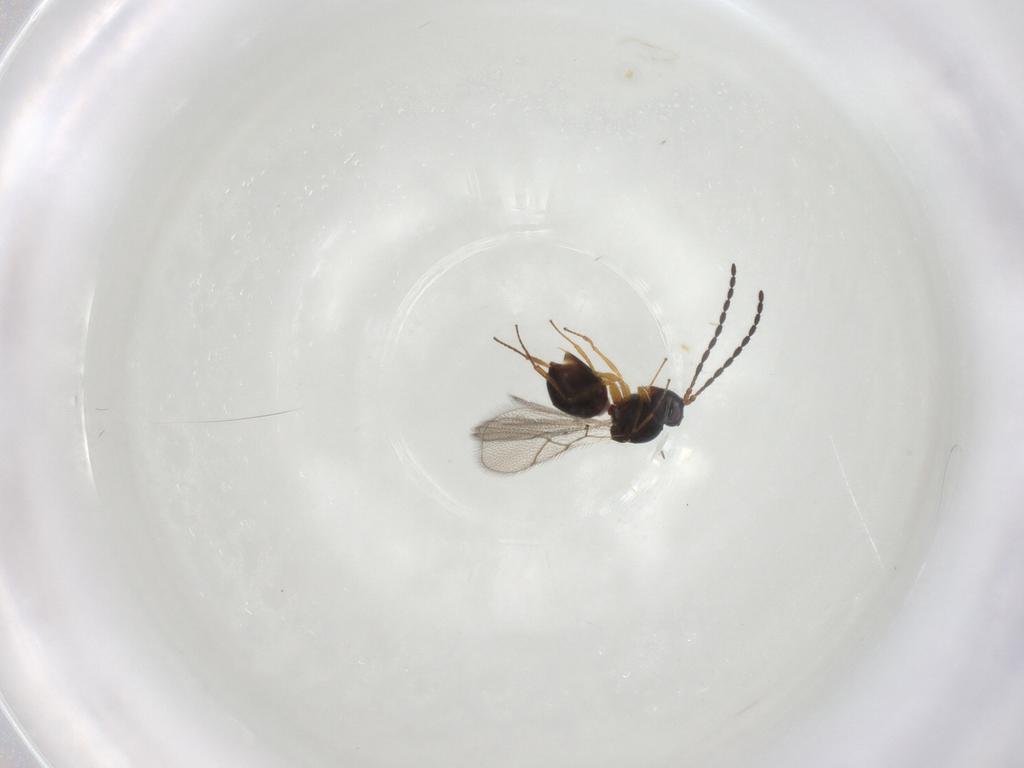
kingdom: Animalia
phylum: Arthropoda
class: Insecta
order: Hymenoptera
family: Figitidae
